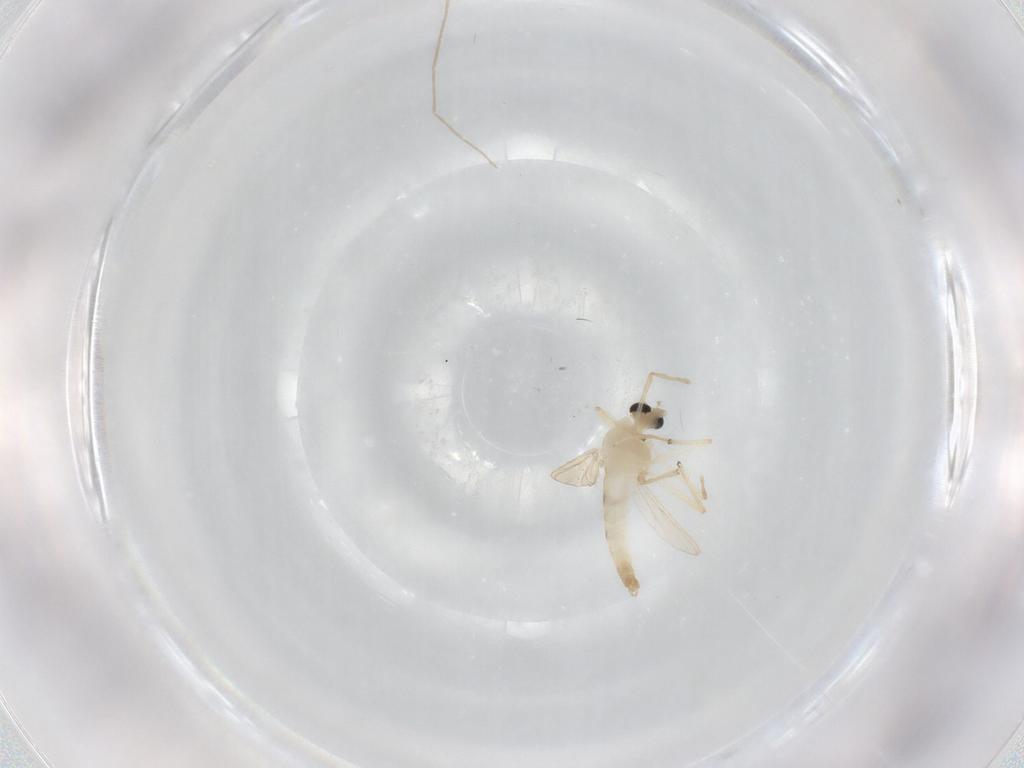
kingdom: Animalia
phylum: Arthropoda
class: Insecta
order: Diptera
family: Chironomidae
